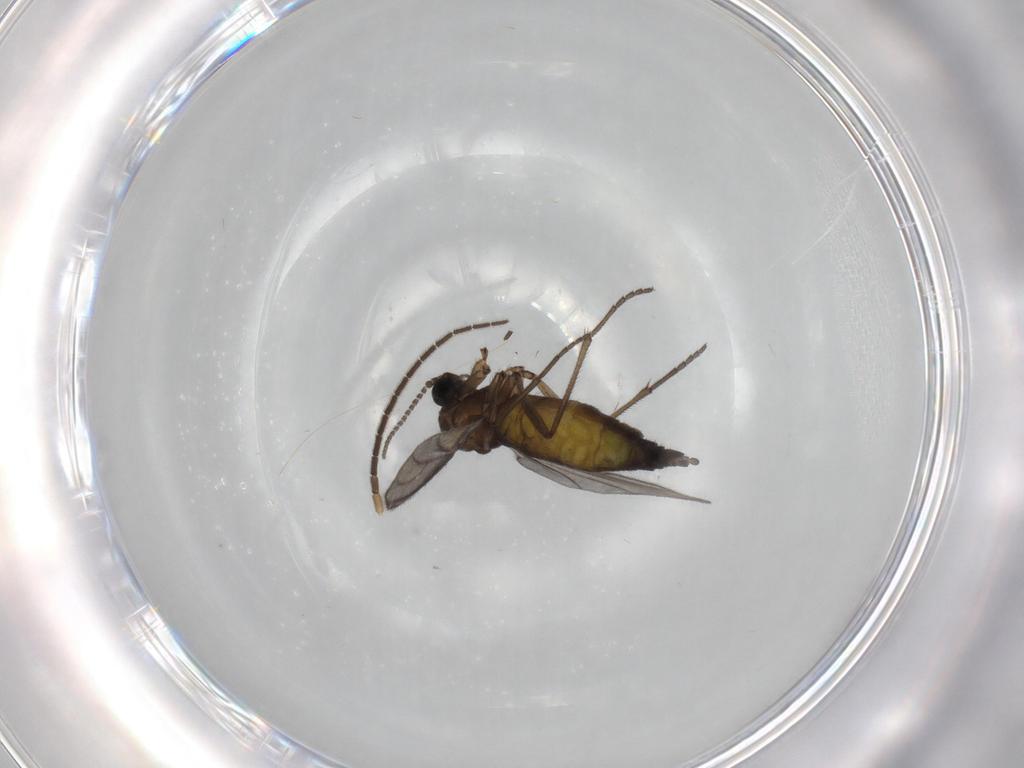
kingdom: Animalia
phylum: Arthropoda
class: Insecta
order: Diptera
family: Sciaridae
